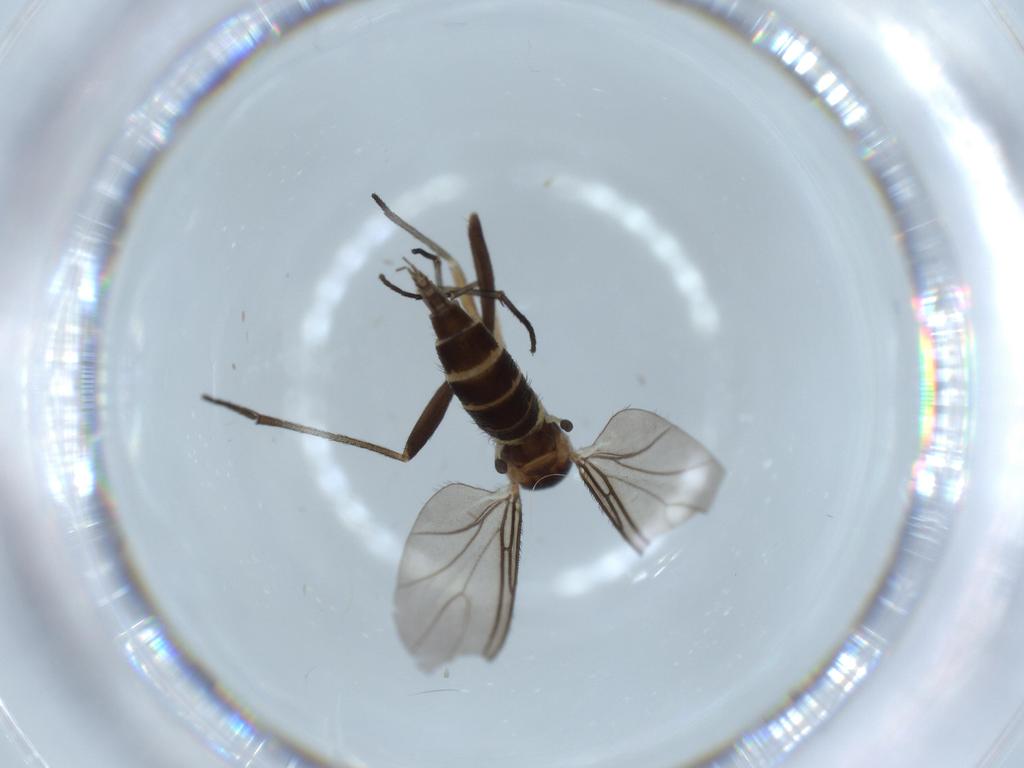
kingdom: Animalia
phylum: Arthropoda
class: Insecta
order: Diptera
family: Sciaridae
